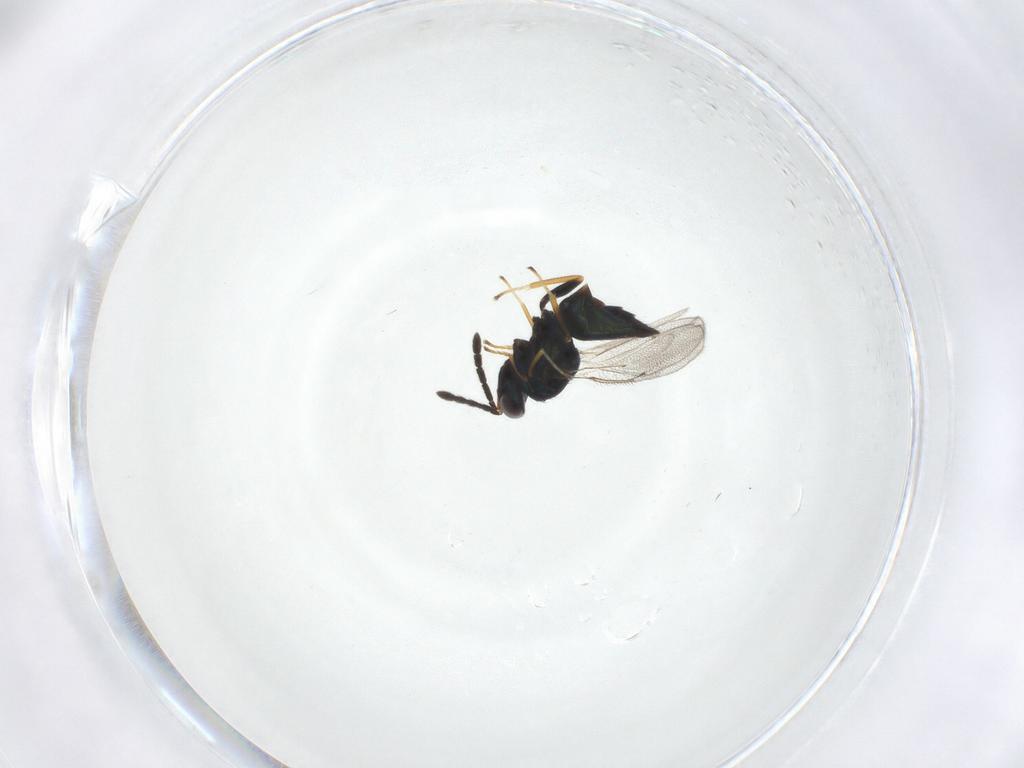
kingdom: Animalia
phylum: Arthropoda
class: Insecta
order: Hymenoptera
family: Eulophidae
